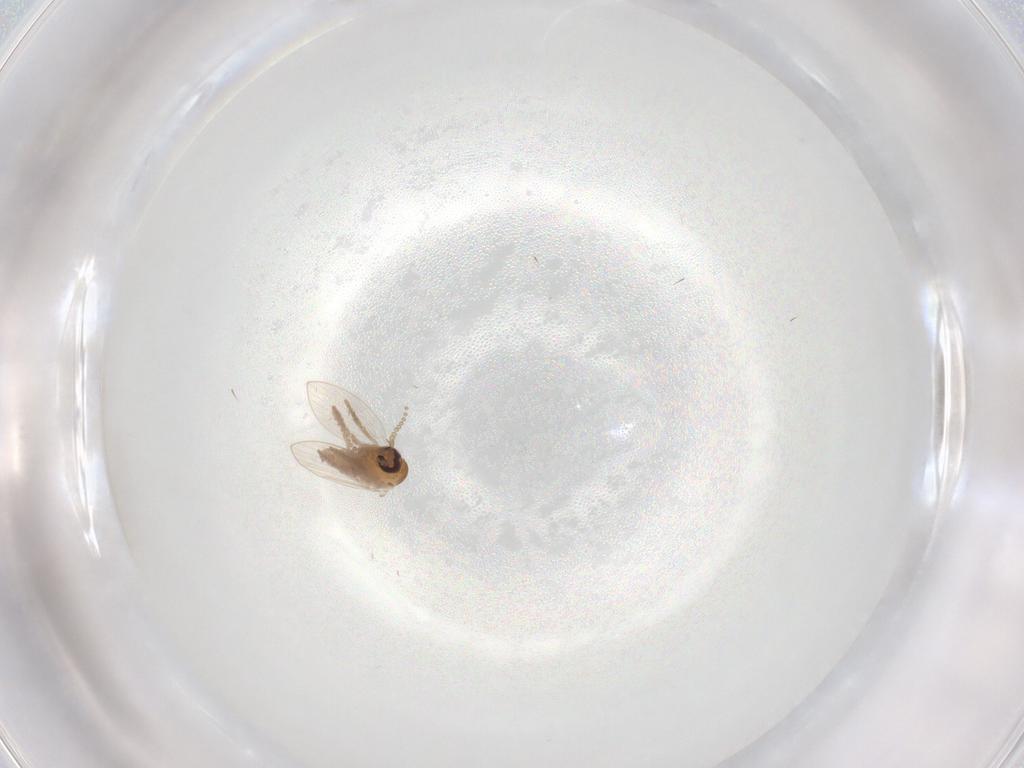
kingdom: Animalia
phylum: Arthropoda
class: Insecta
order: Diptera
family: Psychodidae
